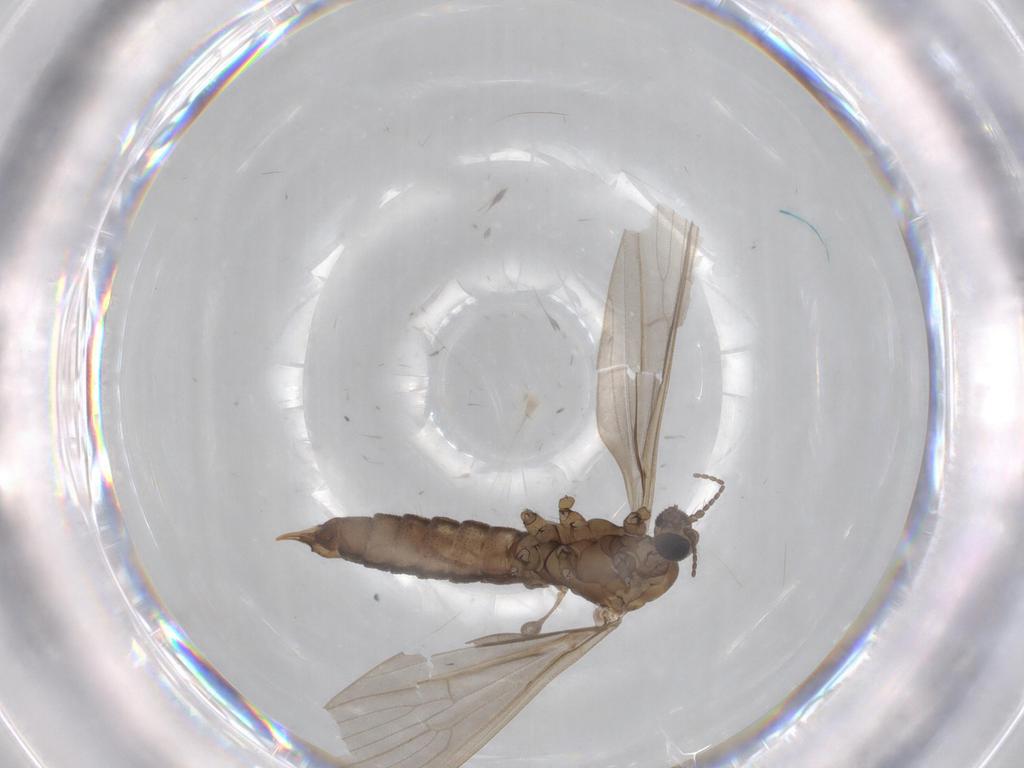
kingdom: Animalia
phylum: Arthropoda
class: Insecta
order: Diptera
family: Limoniidae
